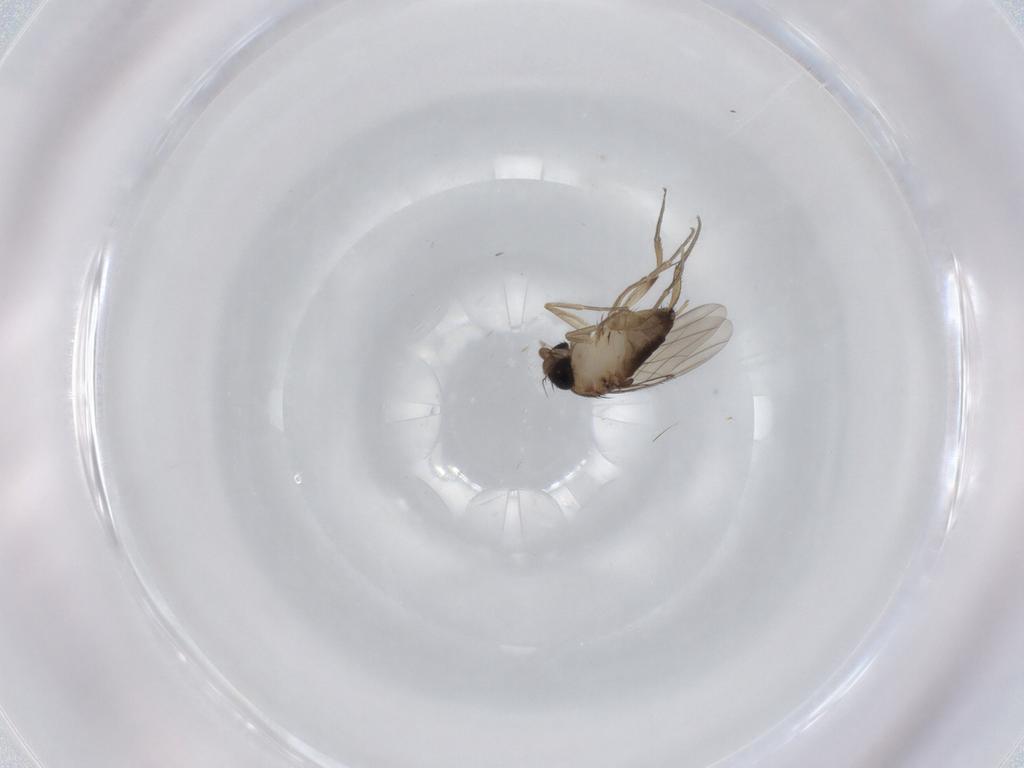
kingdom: Animalia
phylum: Arthropoda
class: Insecta
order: Diptera
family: Phoridae
